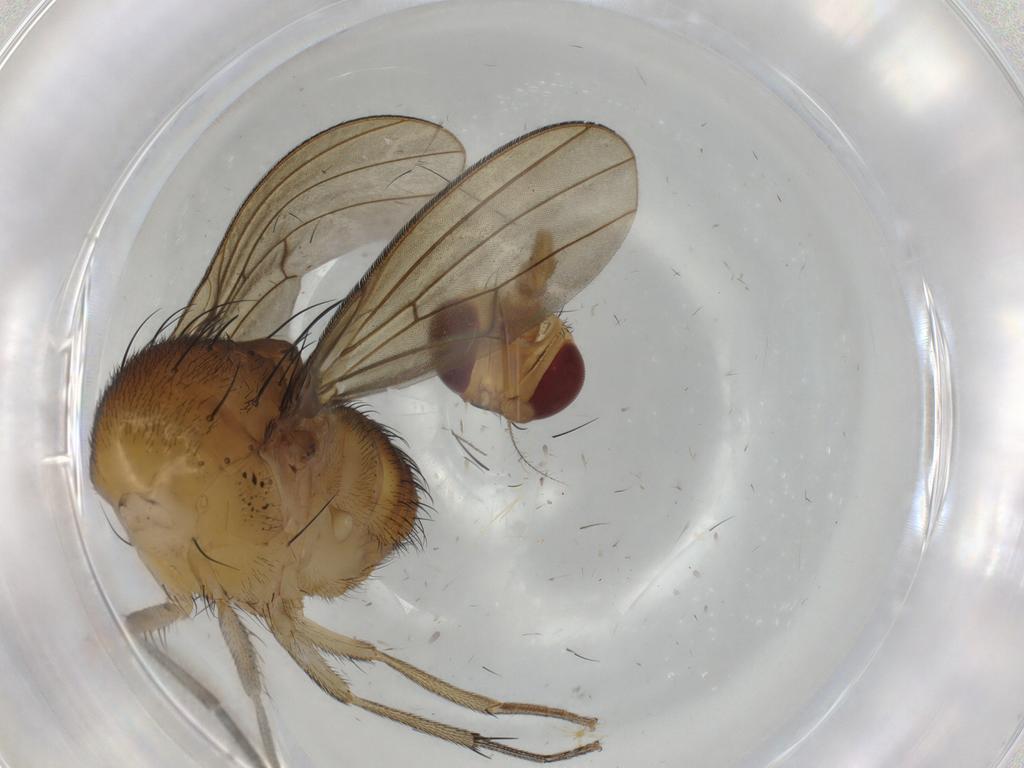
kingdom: Animalia
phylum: Arthropoda
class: Insecta
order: Diptera
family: Lauxaniidae
